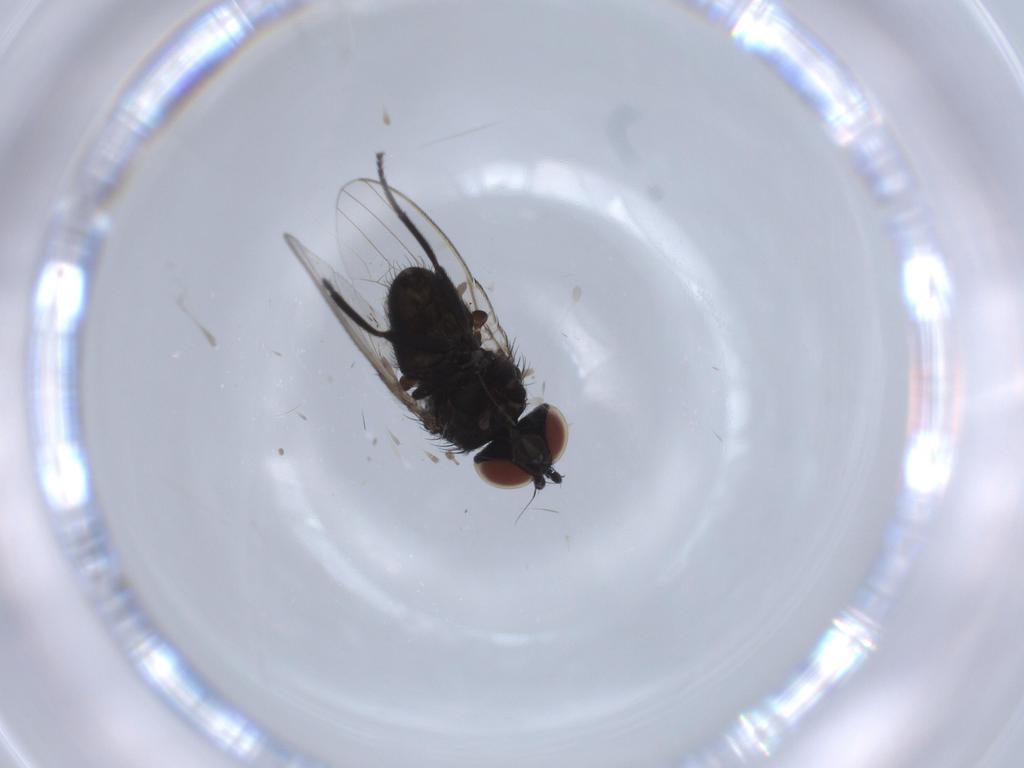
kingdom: Animalia
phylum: Arthropoda
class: Insecta
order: Diptera
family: Milichiidae
